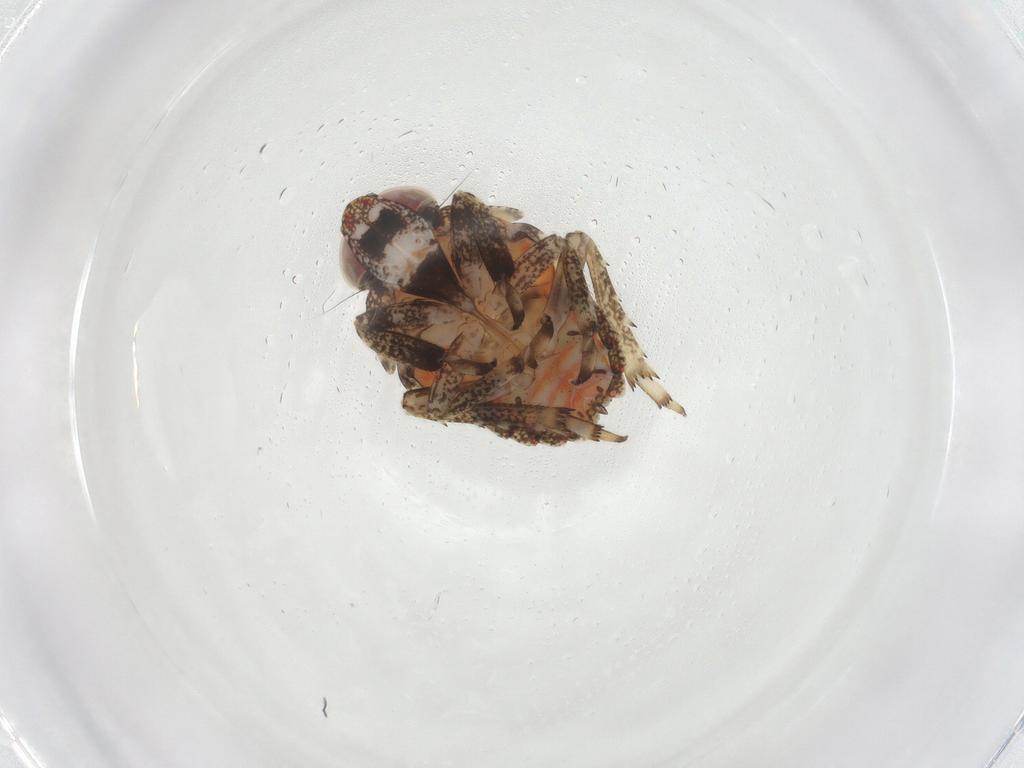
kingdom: Animalia
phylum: Arthropoda
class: Insecta
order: Hemiptera
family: Issidae
